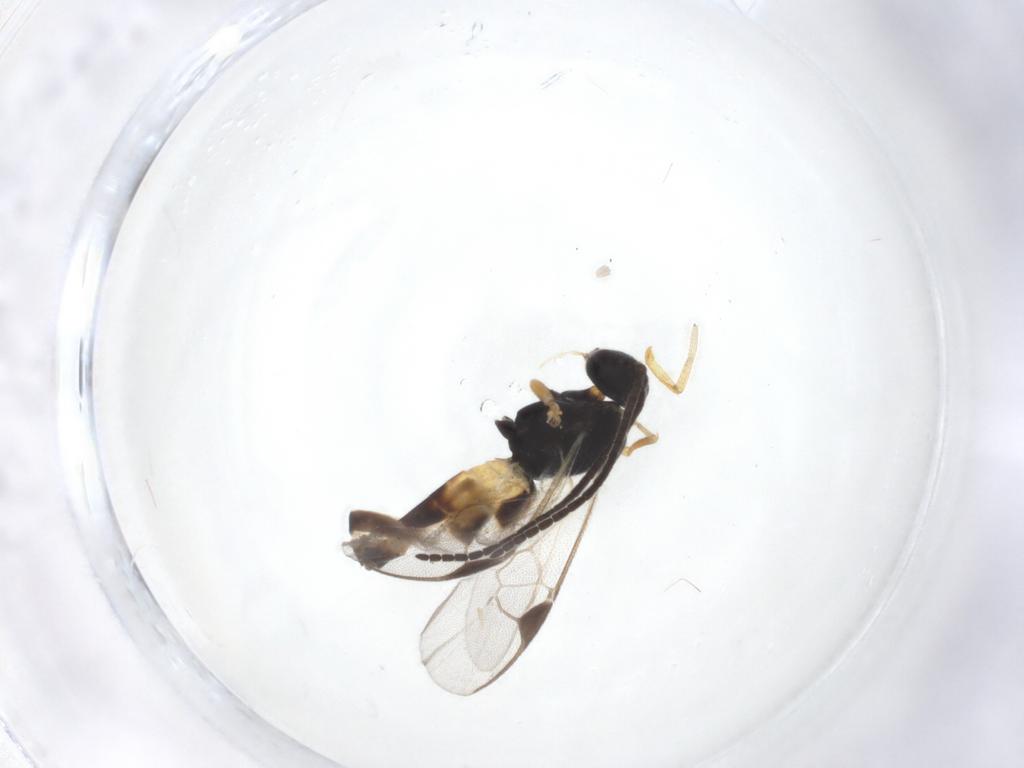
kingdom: Animalia
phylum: Arthropoda
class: Insecta
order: Hymenoptera
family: Braconidae
